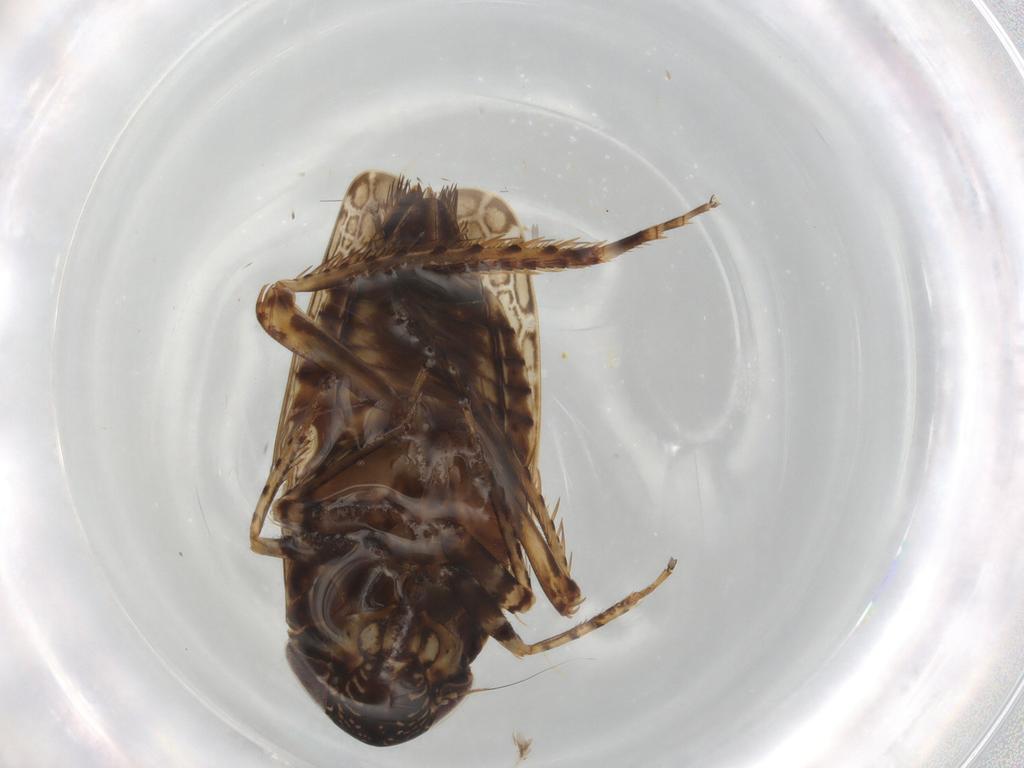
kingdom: Animalia
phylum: Arthropoda
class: Insecta
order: Hemiptera
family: Cicadellidae
